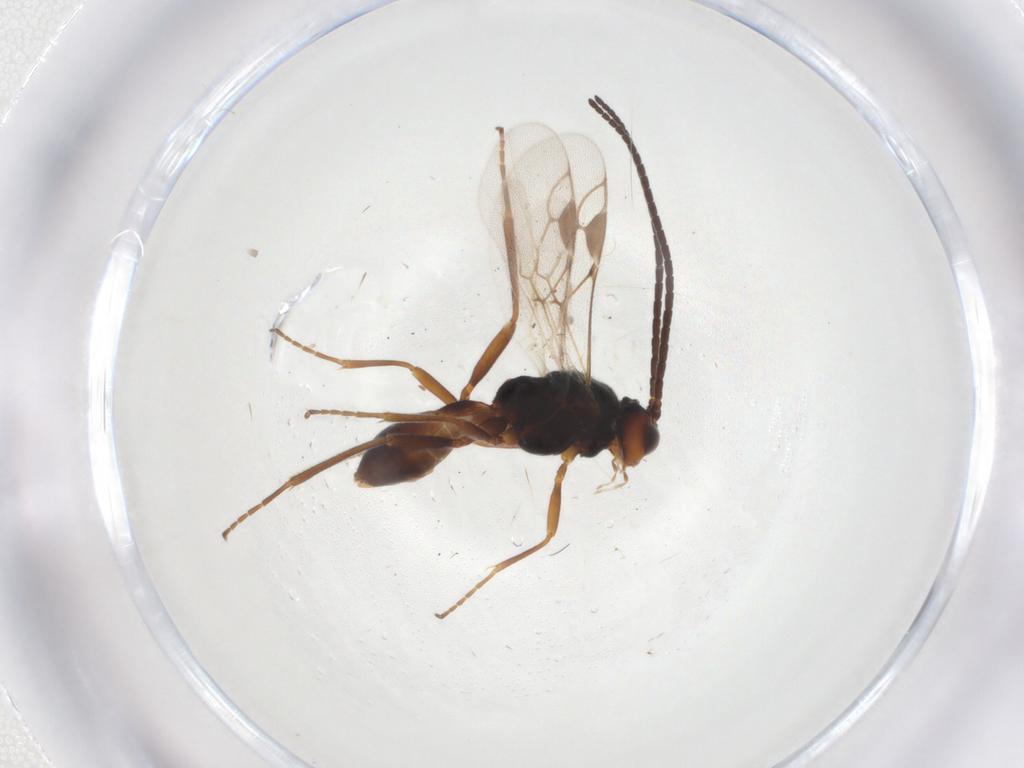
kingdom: Animalia
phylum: Arthropoda
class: Insecta
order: Hymenoptera
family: Braconidae
